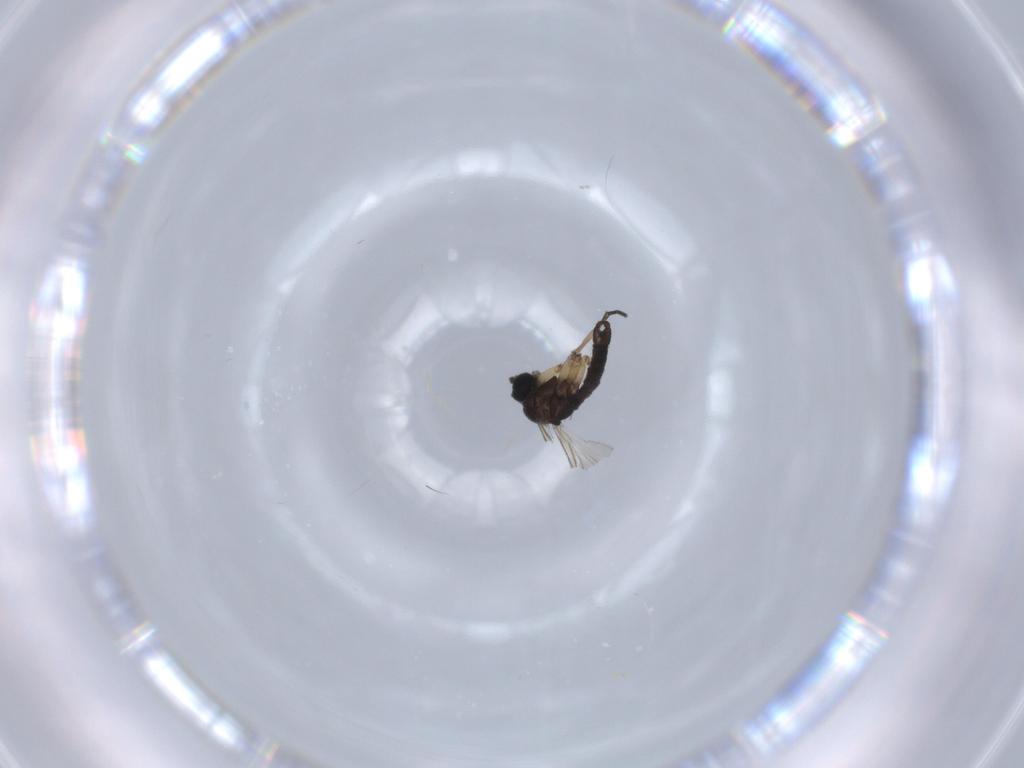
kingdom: Animalia
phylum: Arthropoda
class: Insecta
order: Diptera
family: Sciaridae
